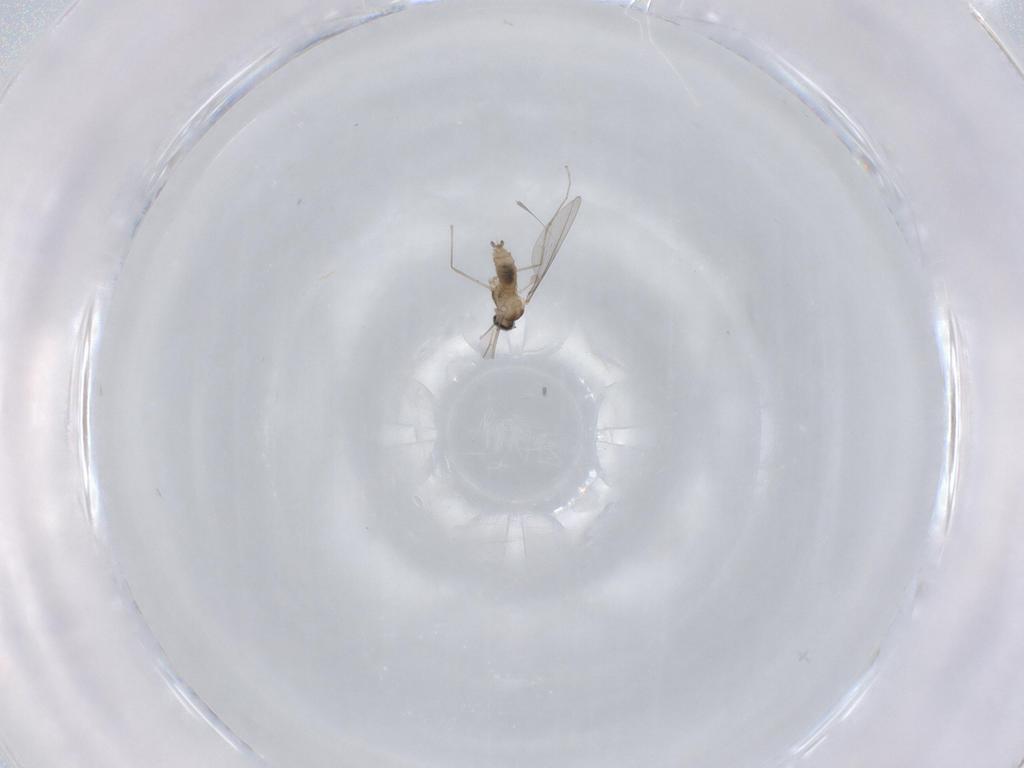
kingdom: Animalia
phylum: Arthropoda
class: Insecta
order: Diptera
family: Cecidomyiidae
